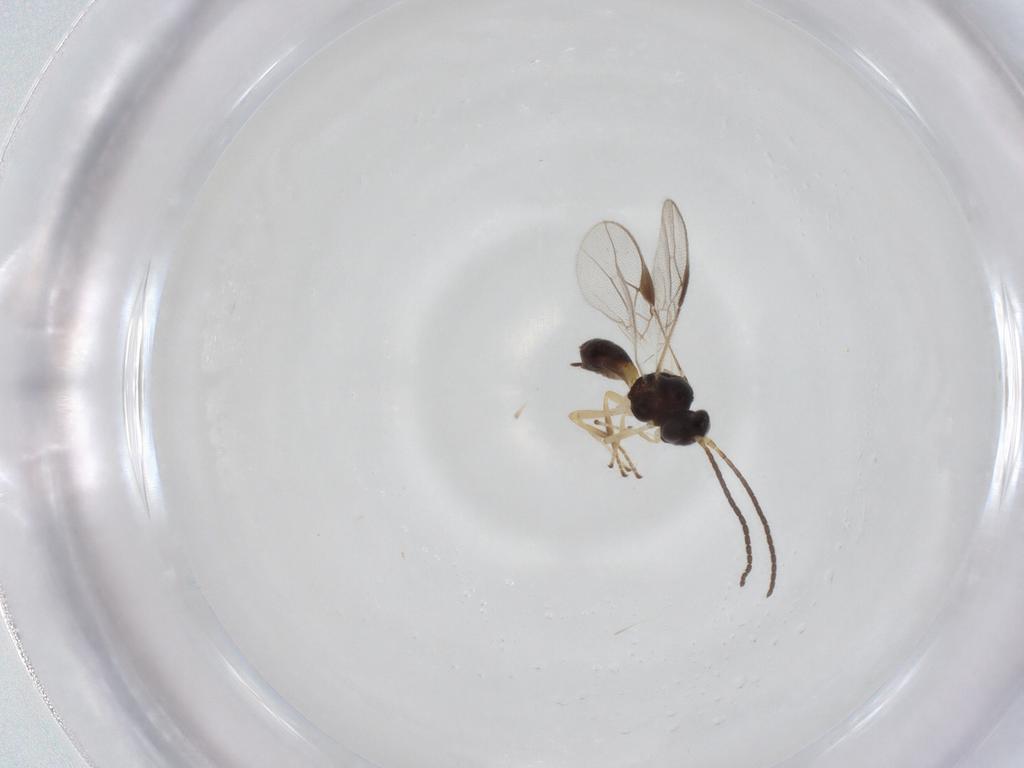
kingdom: Animalia
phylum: Arthropoda
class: Insecta
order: Hymenoptera
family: Braconidae
